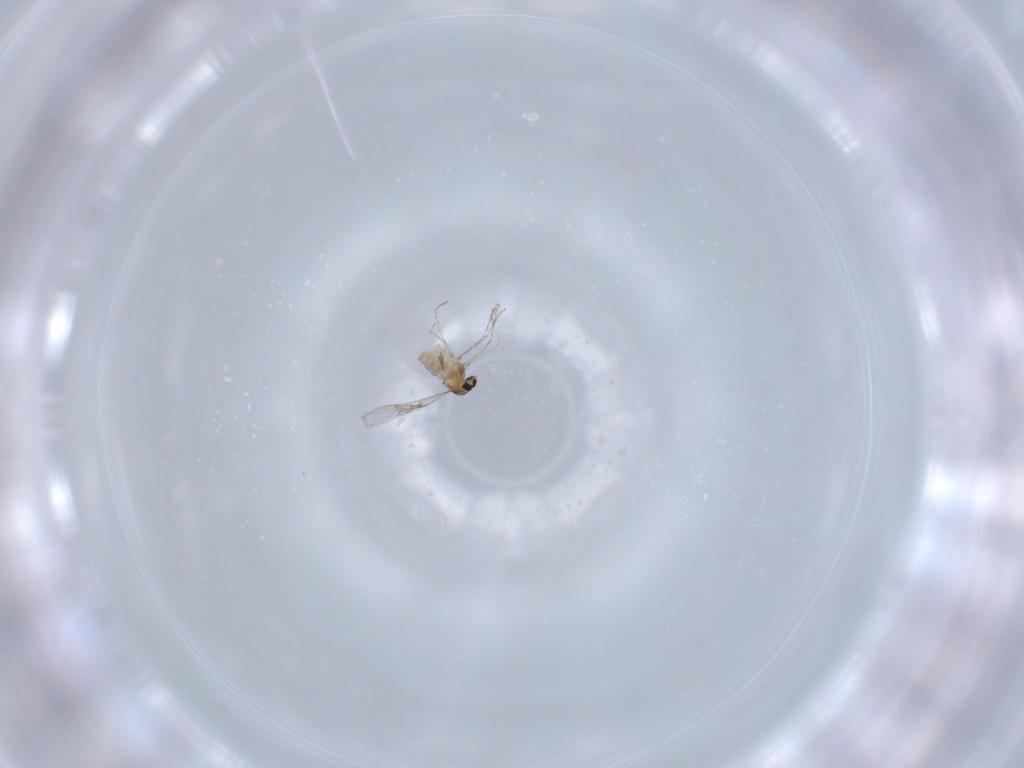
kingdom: Animalia
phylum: Arthropoda
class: Insecta
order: Diptera
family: Cecidomyiidae
